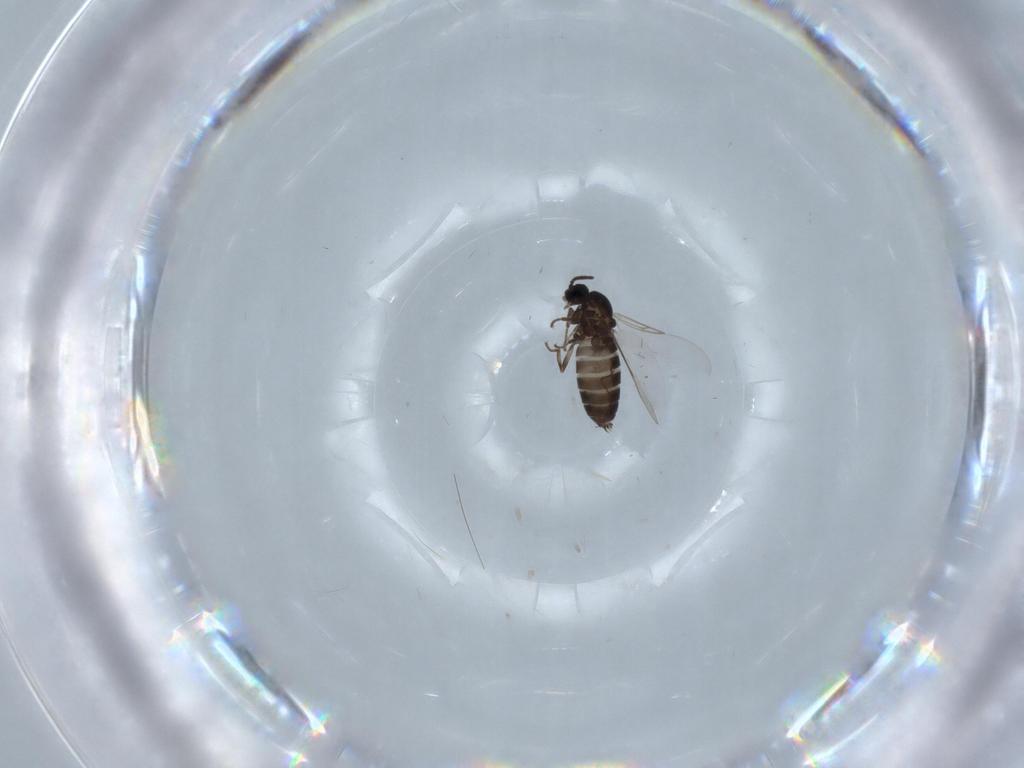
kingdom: Animalia
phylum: Arthropoda
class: Insecta
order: Diptera
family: Scatopsidae
